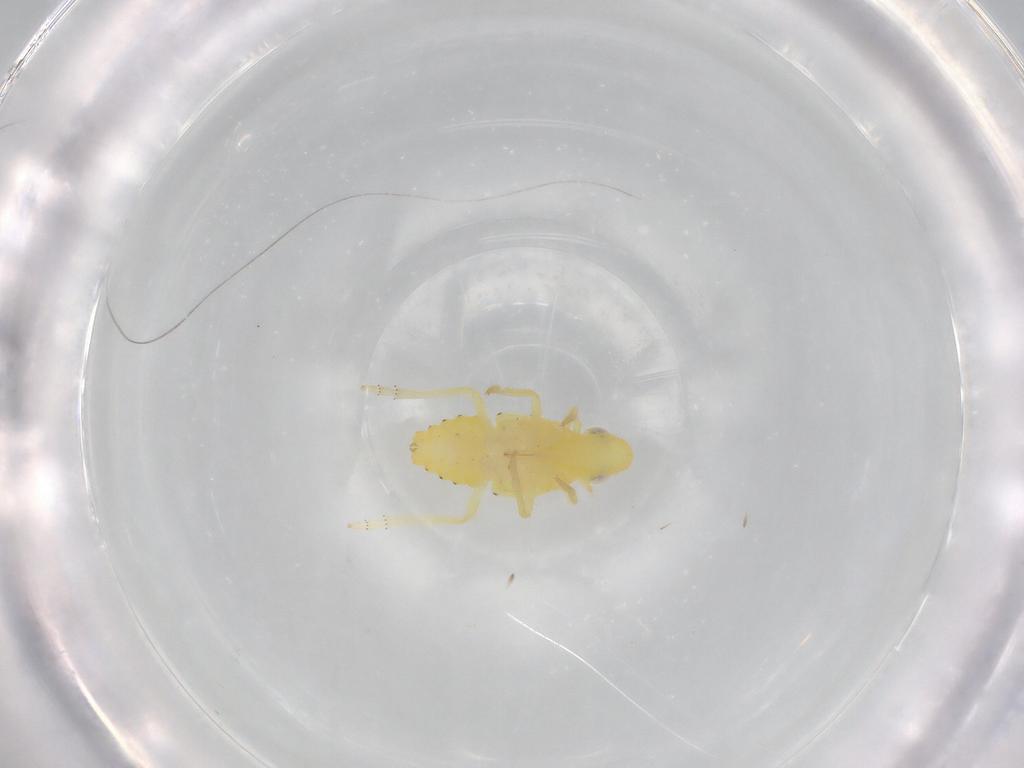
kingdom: Animalia
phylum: Arthropoda
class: Insecta
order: Hemiptera
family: Tropiduchidae
